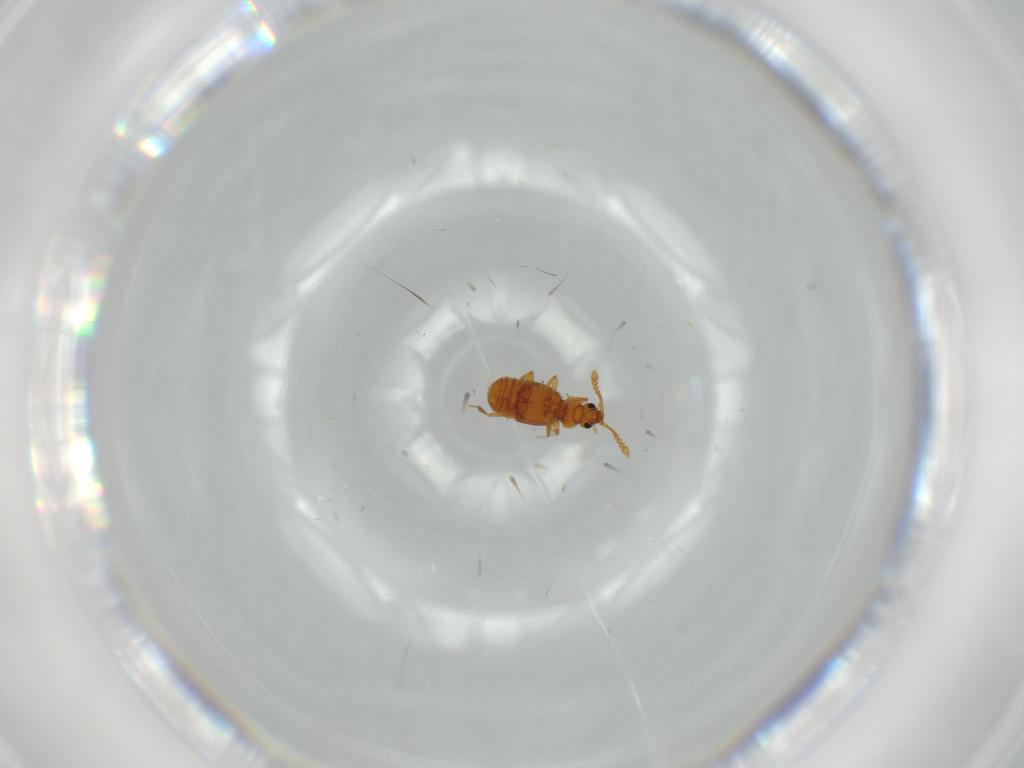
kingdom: Animalia
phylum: Arthropoda
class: Insecta
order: Coleoptera
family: Staphylinidae
